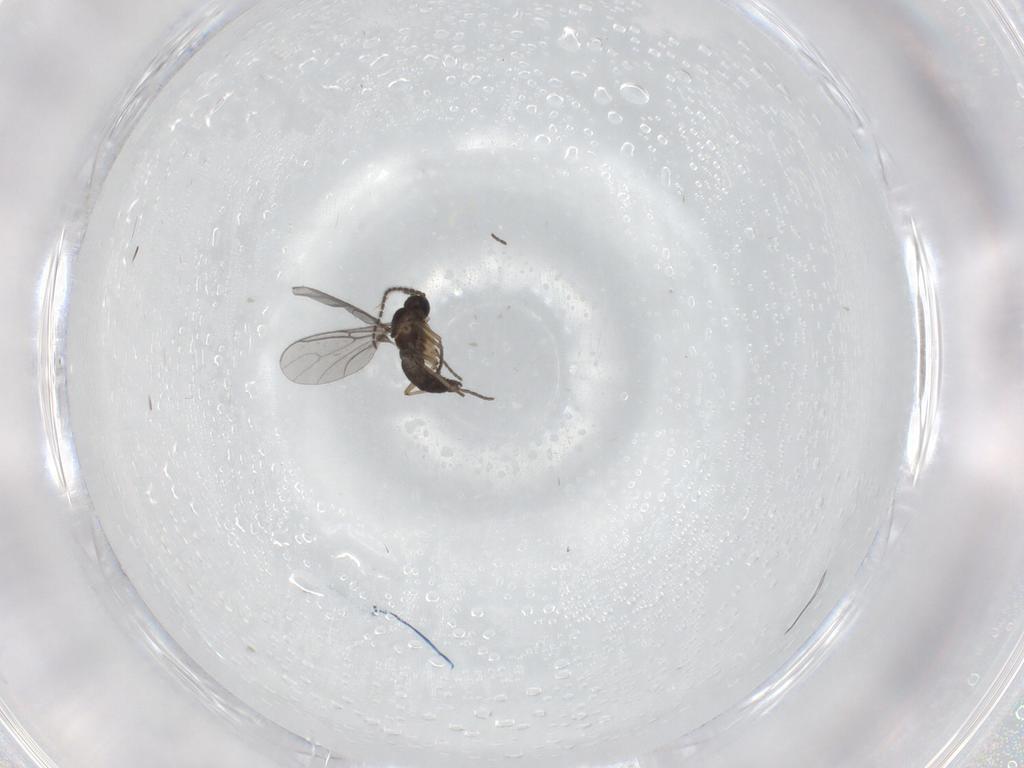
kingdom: Animalia
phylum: Arthropoda
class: Insecta
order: Diptera
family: Sciaridae
